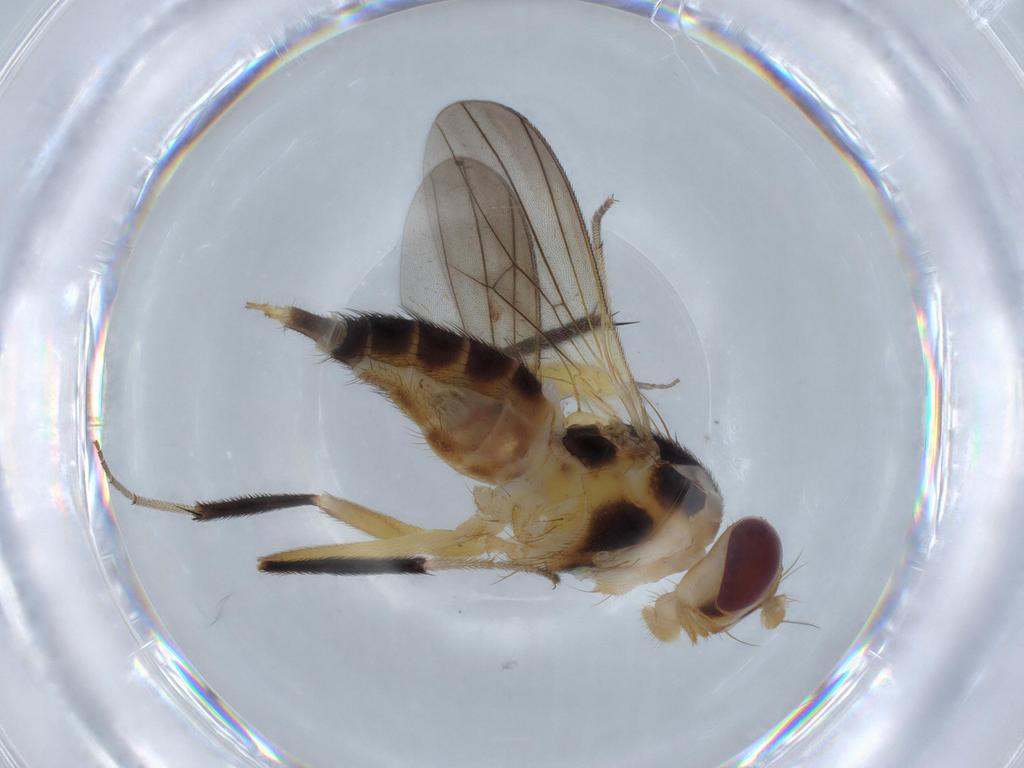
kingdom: Animalia
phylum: Arthropoda
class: Insecta
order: Diptera
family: Clusiidae
